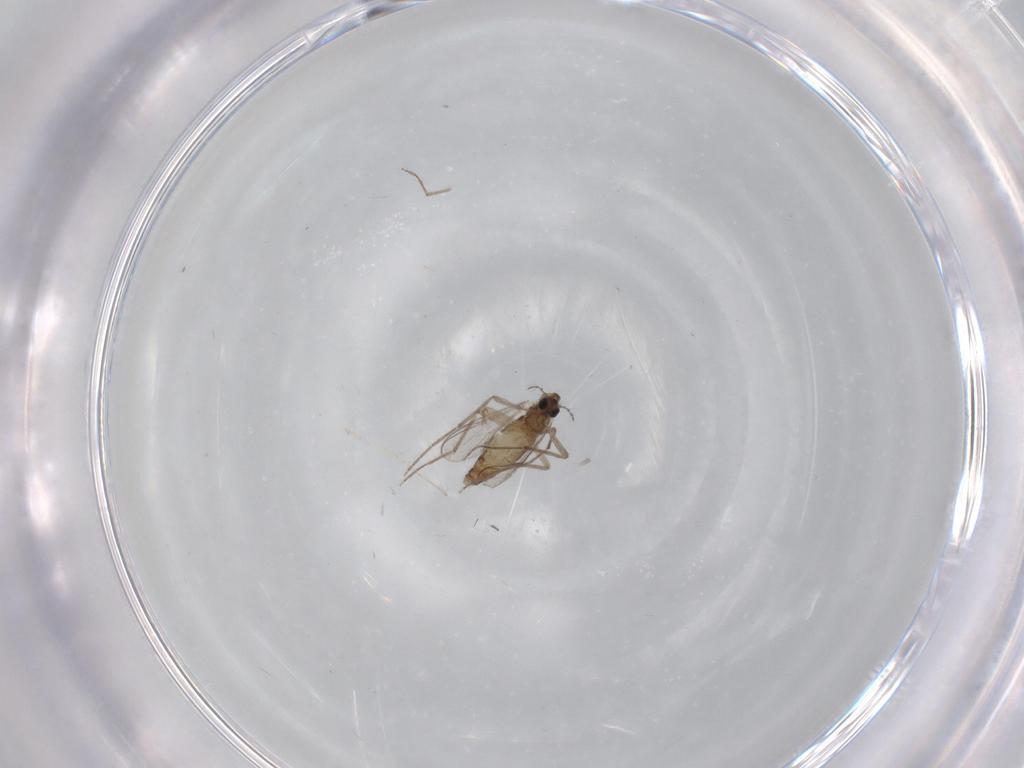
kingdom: Animalia
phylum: Arthropoda
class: Insecta
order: Diptera
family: Chironomidae
